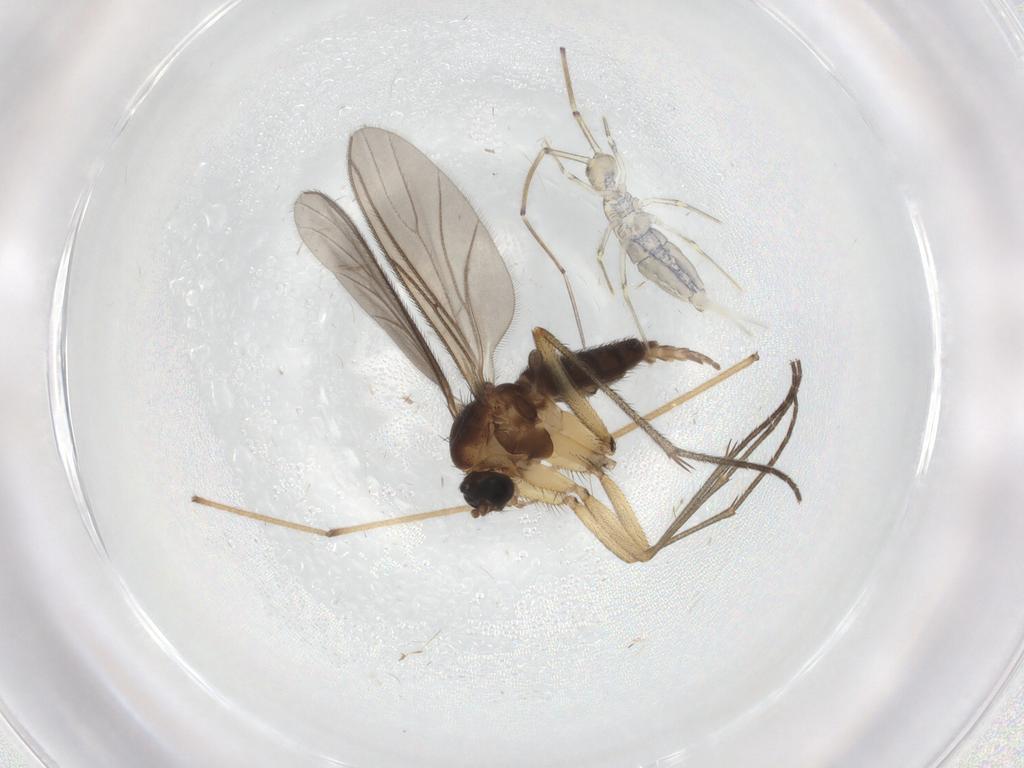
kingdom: Animalia
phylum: Arthropoda
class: Insecta
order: Diptera
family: Sciaridae
